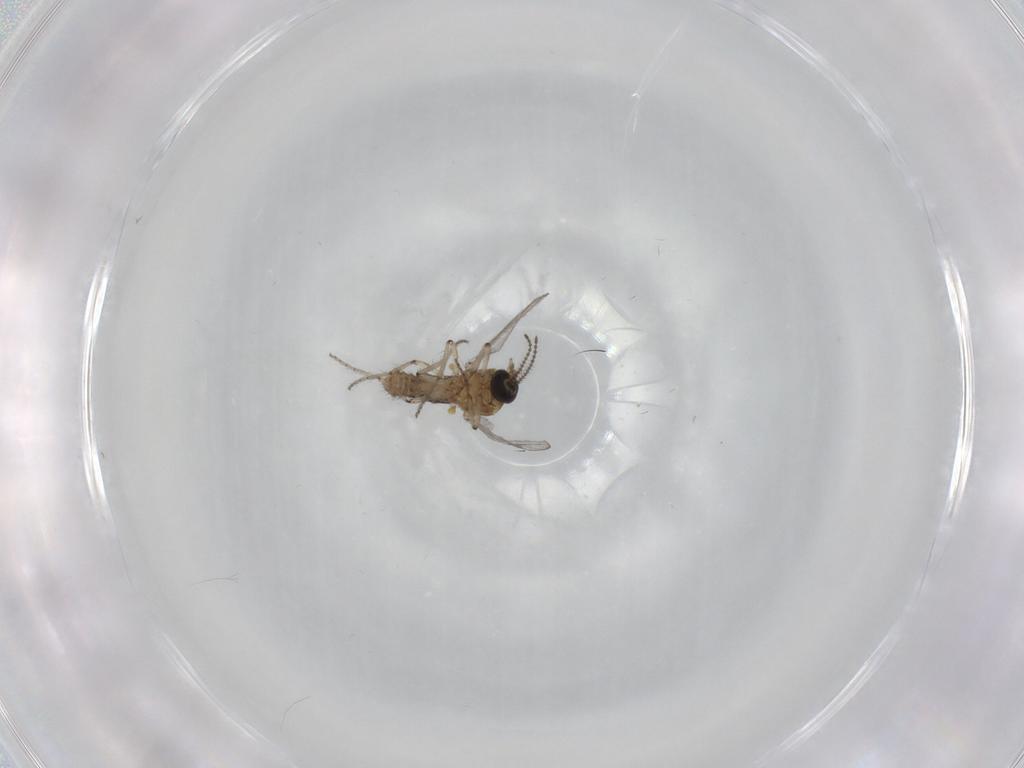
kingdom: Animalia
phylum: Arthropoda
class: Insecta
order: Diptera
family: Ceratopogonidae
